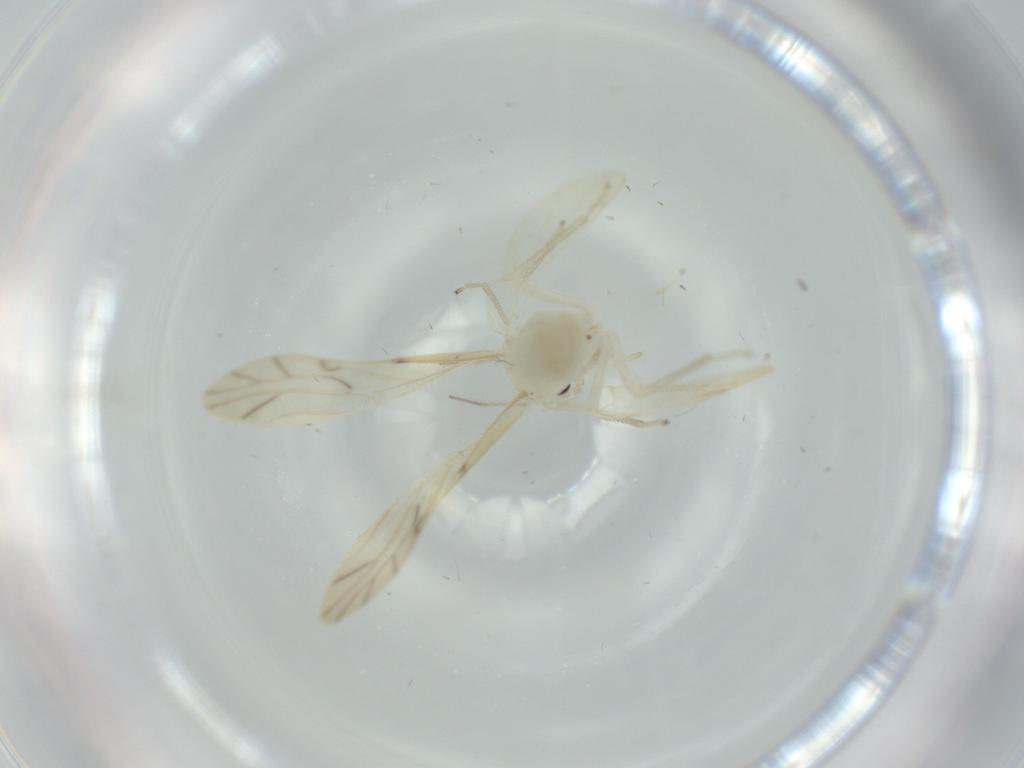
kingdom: Animalia
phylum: Arthropoda
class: Insecta
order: Psocodea
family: Caeciliusidae
